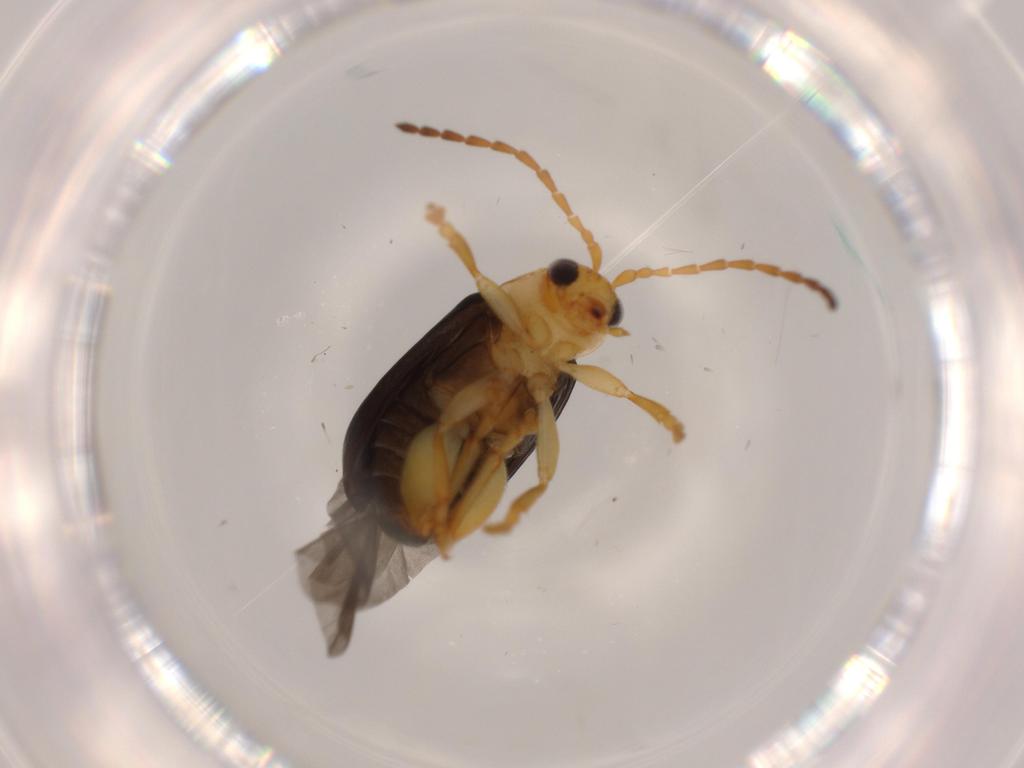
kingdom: Animalia
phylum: Arthropoda
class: Insecta
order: Coleoptera
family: Chrysomelidae
